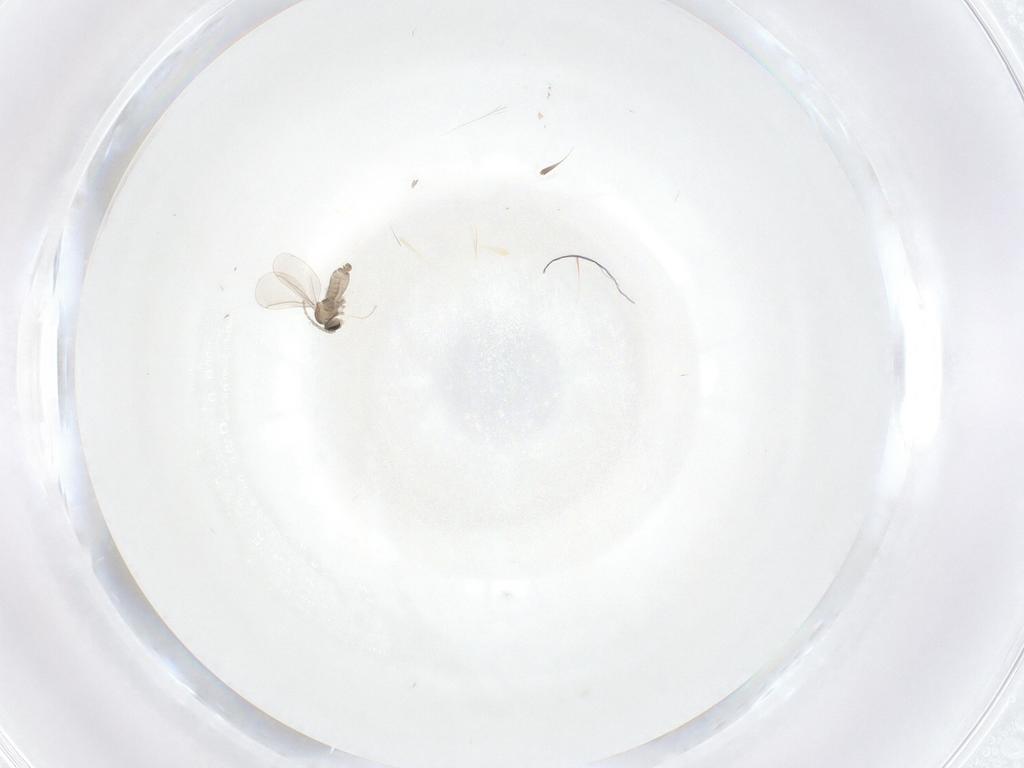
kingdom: Animalia
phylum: Arthropoda
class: Insecta
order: Diptera
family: Cecidomyiidae
